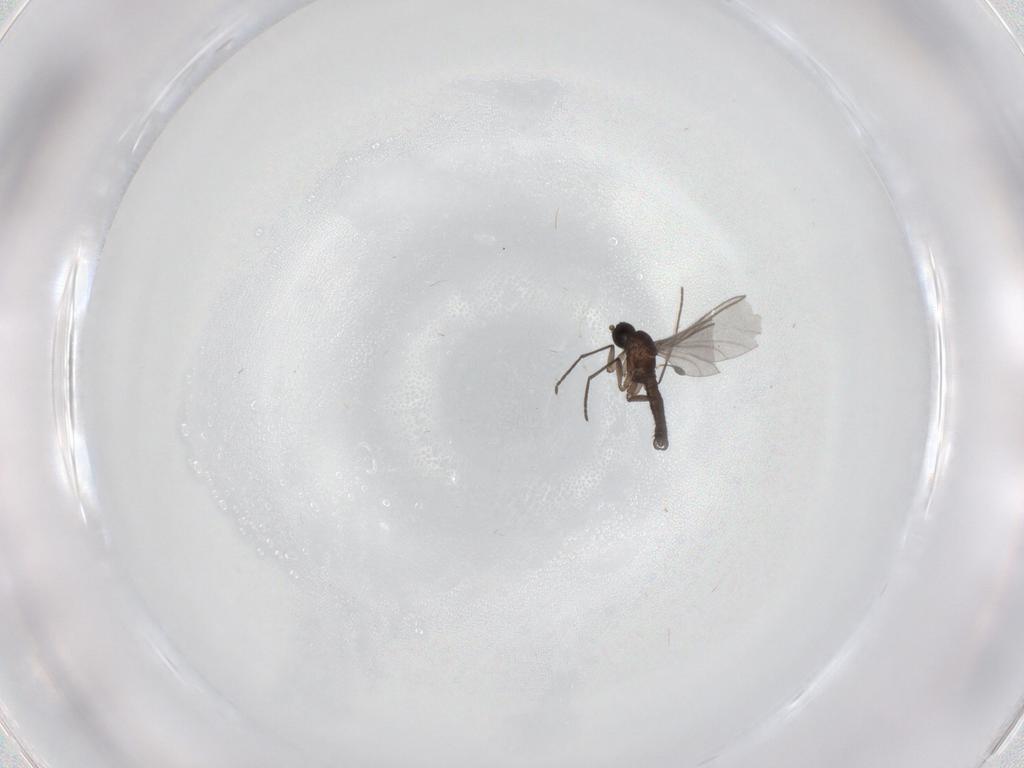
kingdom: Animalia
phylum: Arthropoda
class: Insecta
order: Diptera
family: Sciaridae
